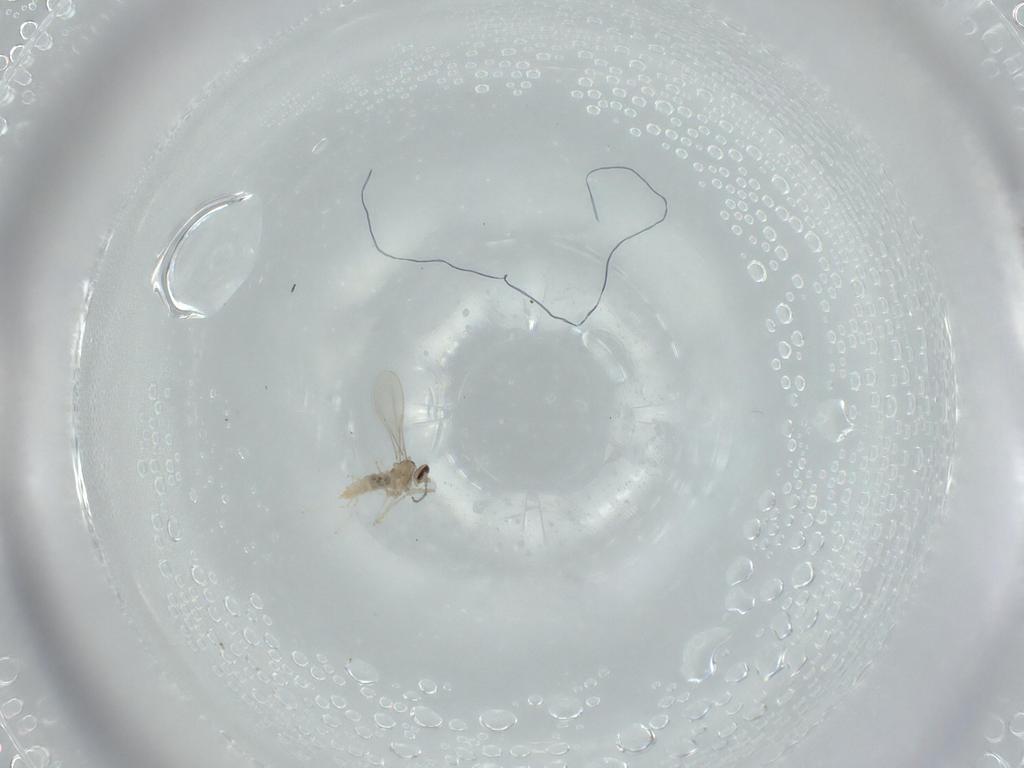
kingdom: Animalia
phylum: Arthropoda
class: Insecta
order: Diptera
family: Cecidomyiidae
